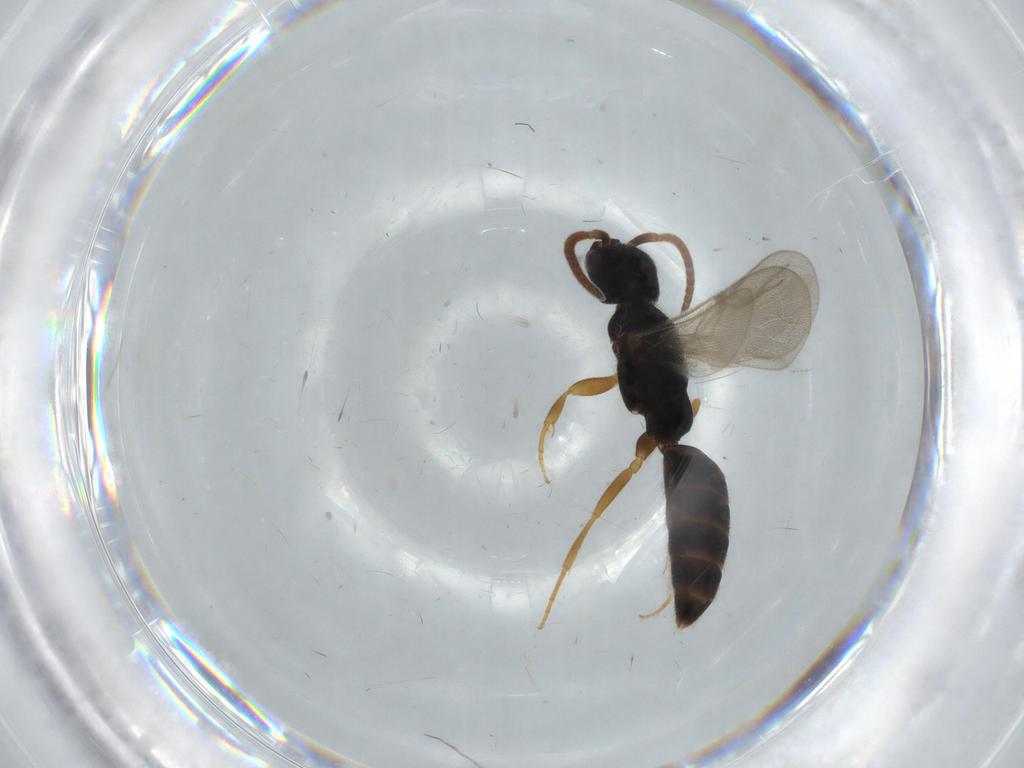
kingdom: Animalia
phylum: Arthropoda
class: Insecta
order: Hymenoptera
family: Bethylidae
